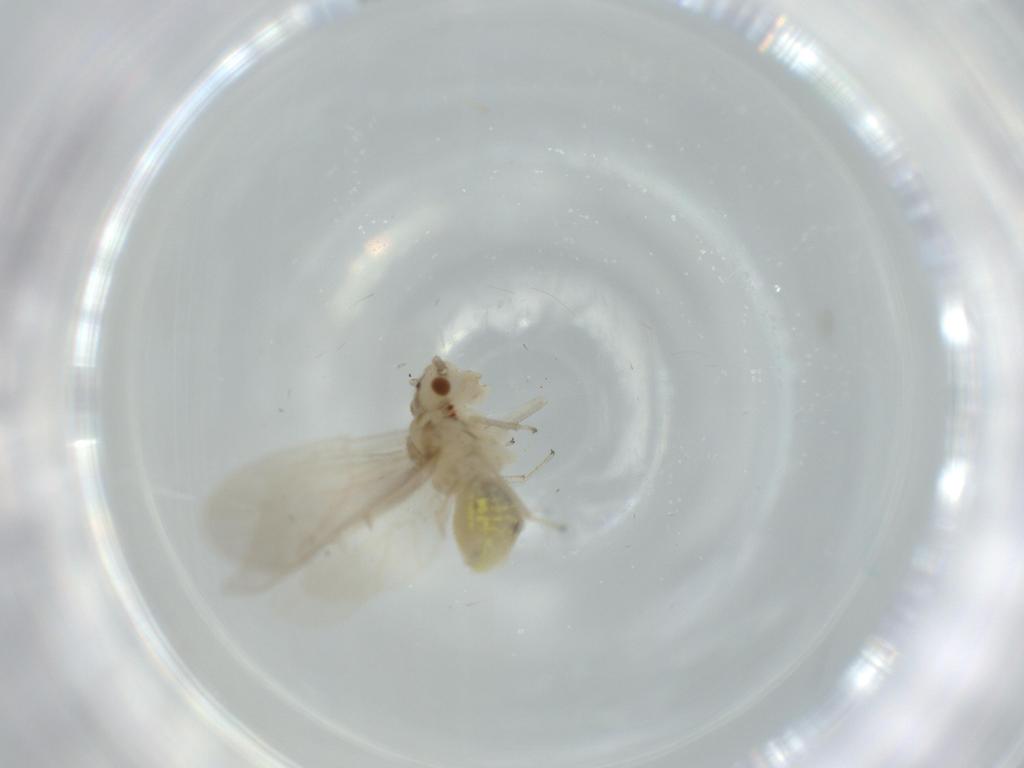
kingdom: Animalia
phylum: Arthropoda
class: Insecta
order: Psocodea
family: Caeciliusidae
